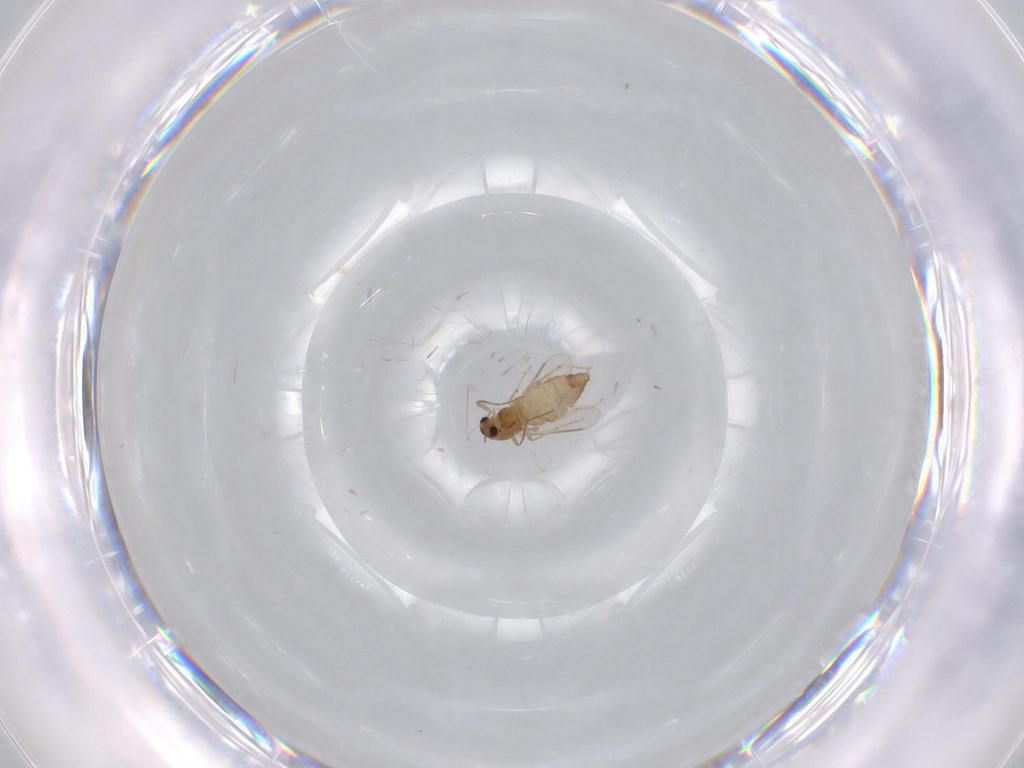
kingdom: Animalia
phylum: Arthropoda
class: Insecta
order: Diptera
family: Chironomidae
